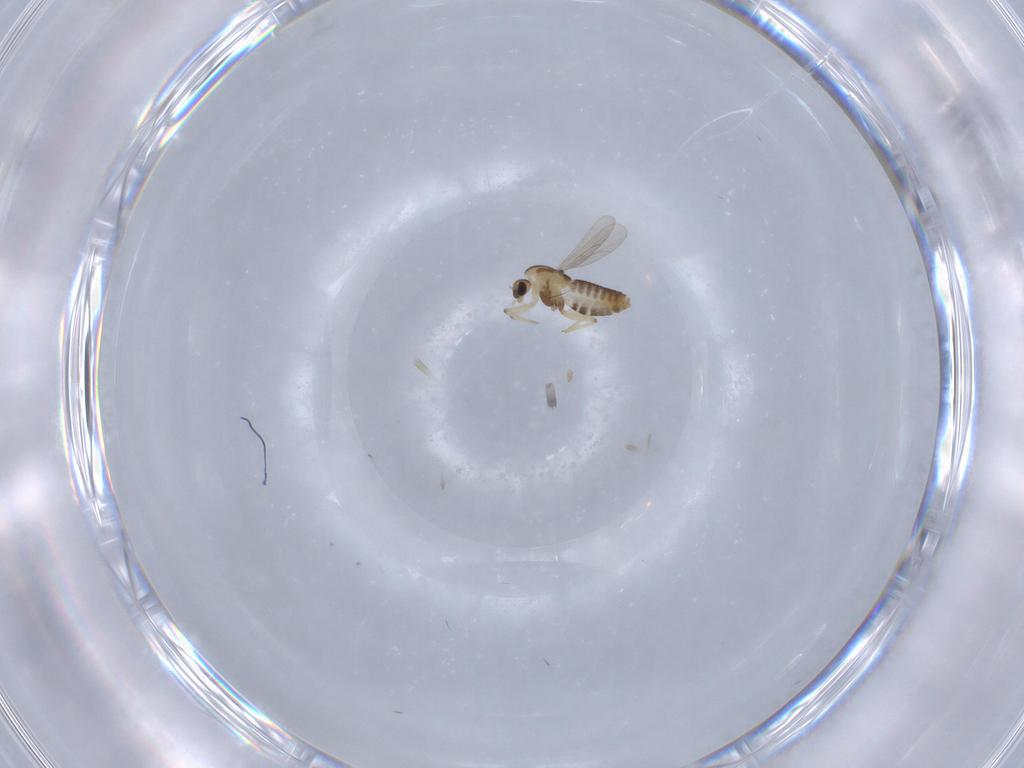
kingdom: Animalia
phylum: Arthropoda
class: Insecta
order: Diptera
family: Chironomidae
